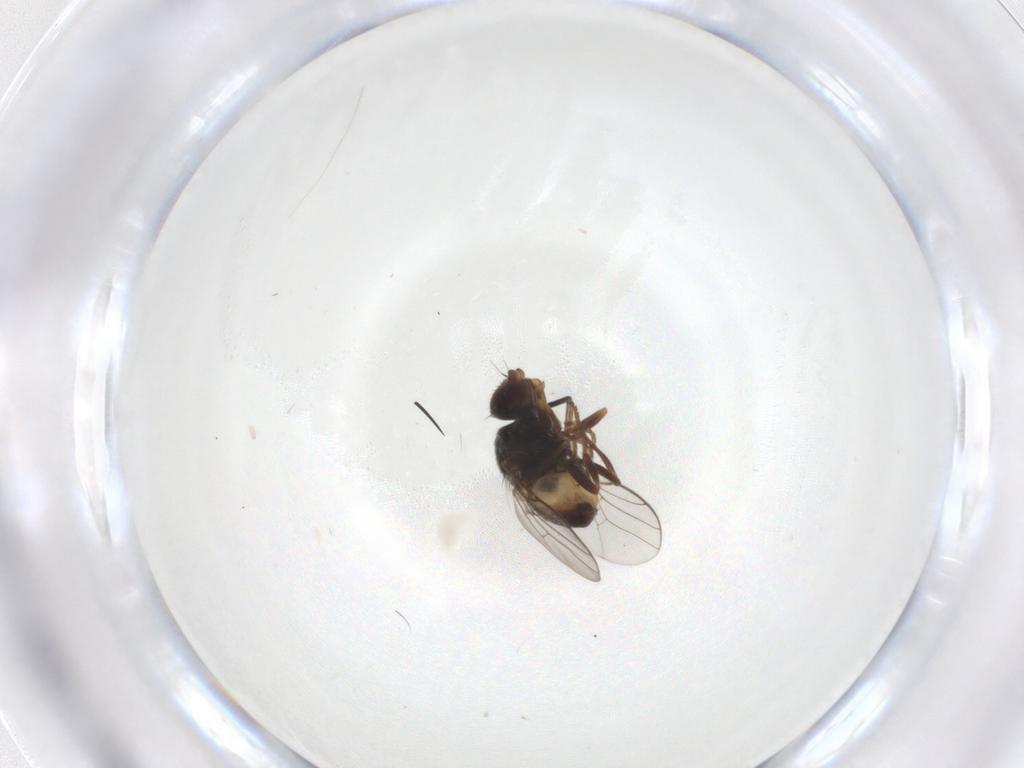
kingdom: Animalia
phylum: Arthropoda
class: Insecta
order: Diptera
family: Chloropidae
